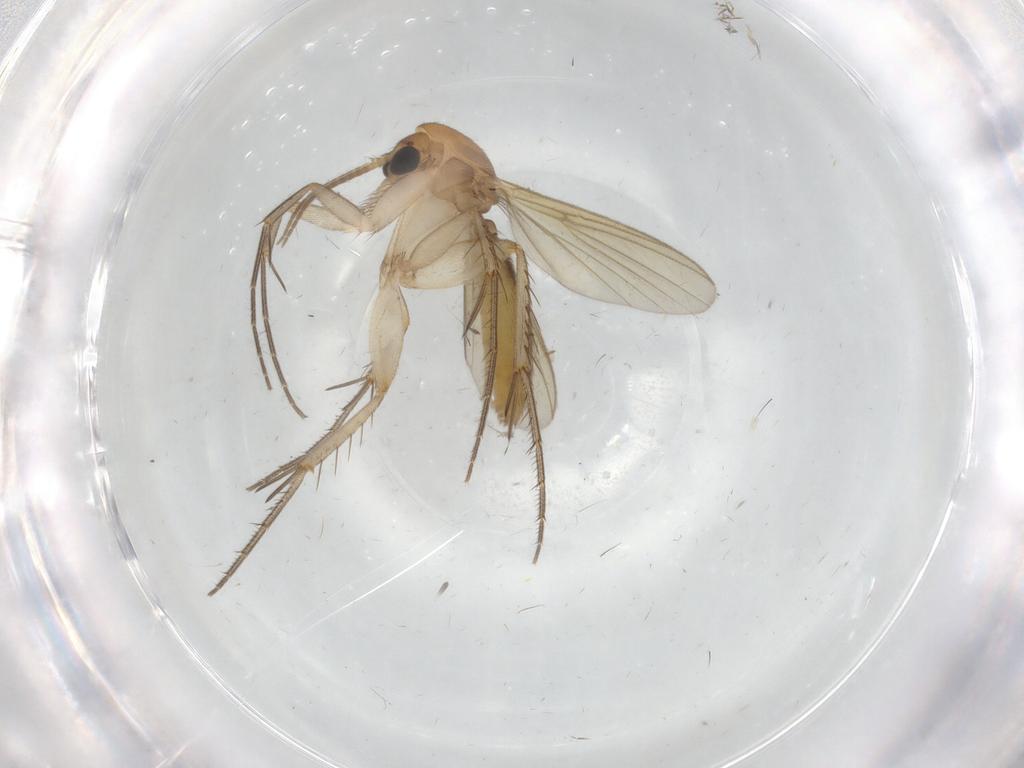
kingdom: Animalia
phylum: Arthropoda
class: Insecta
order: Diptera
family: Mycetophilidae
